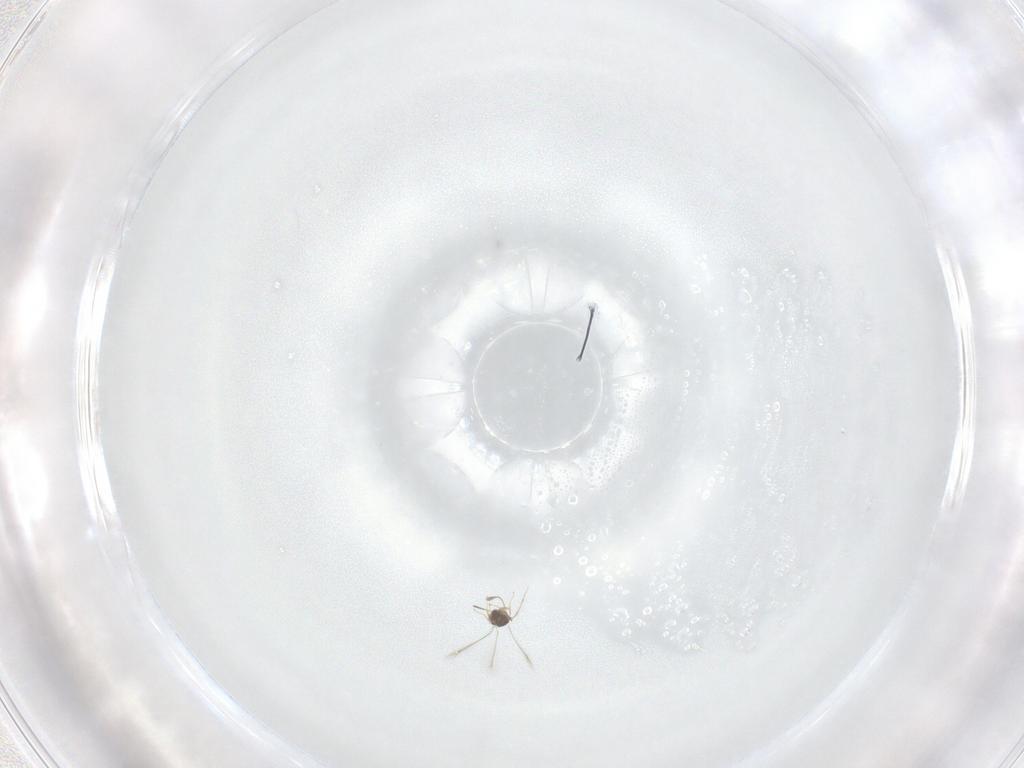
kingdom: Animalia
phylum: Arthropoda
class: Insecta
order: Hymenoptera
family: Mymaridae
